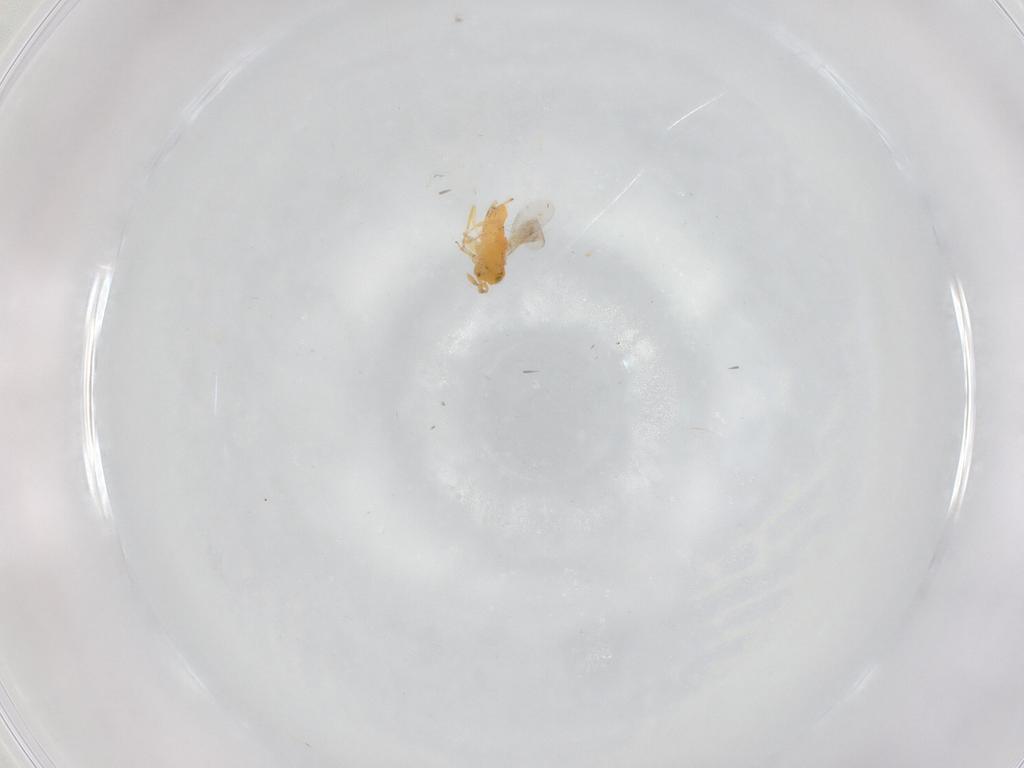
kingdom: Animalia
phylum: Arthropoda
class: Insecta
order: Hymenoptera
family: Encyrtidae
